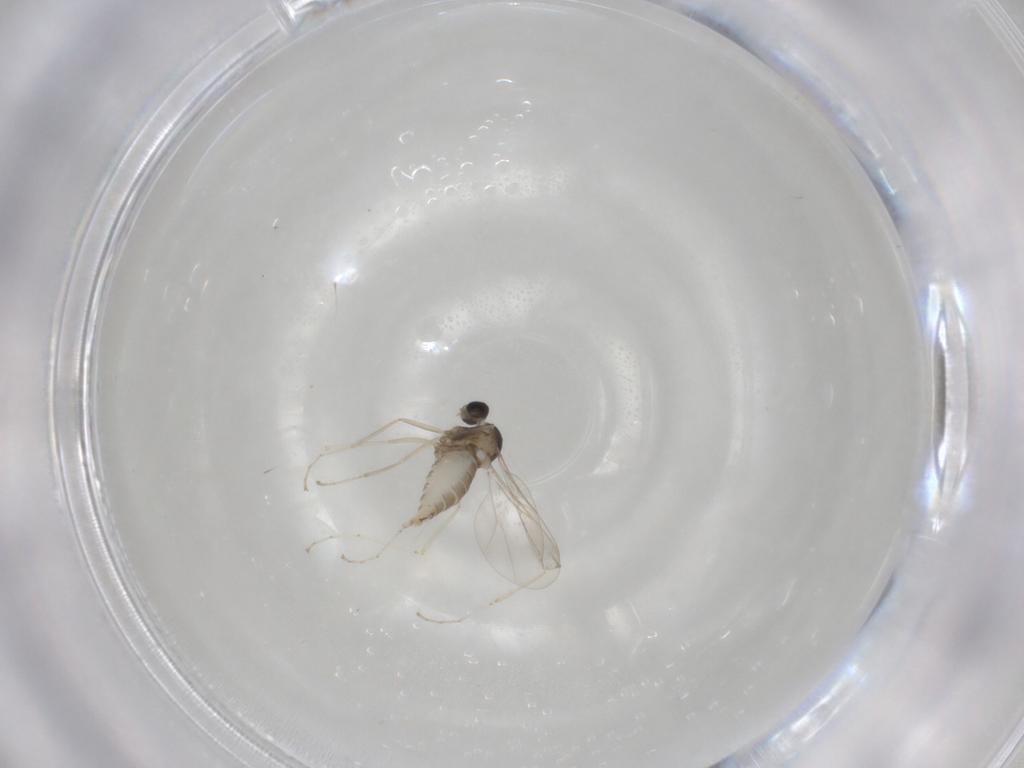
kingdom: Animalia
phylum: Arthropoda
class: Insecta
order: Diptera
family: Cecidomyiidae
